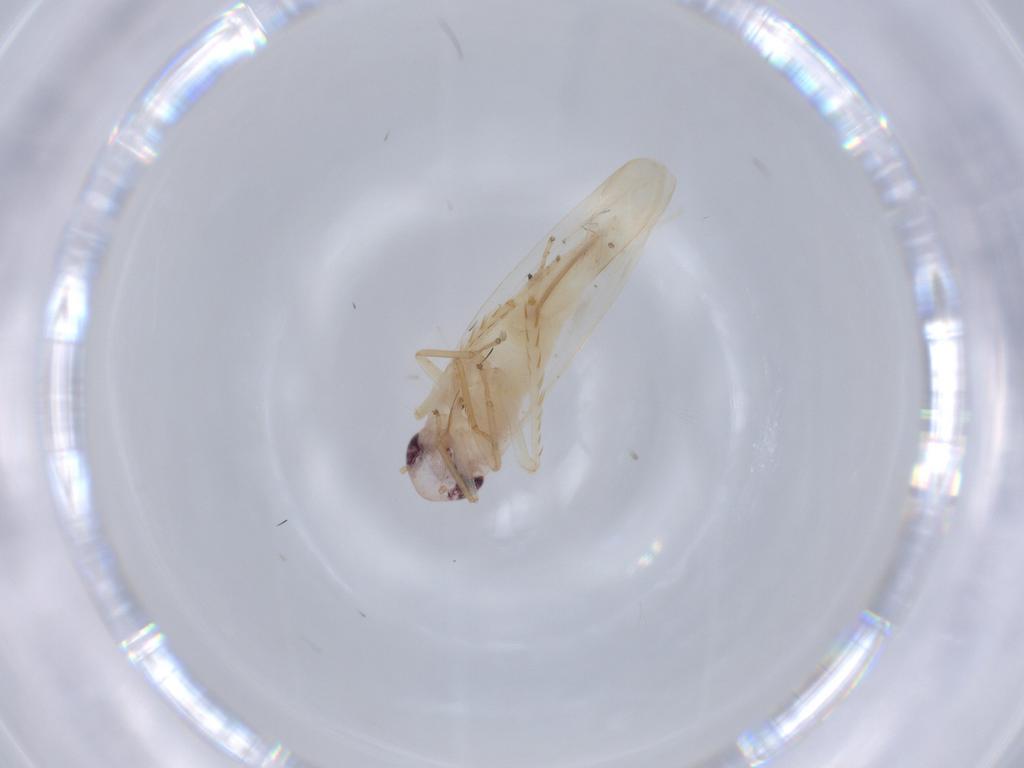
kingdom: Animalia
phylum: Arthropoda
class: Insecta
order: Hemiptera
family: Cicadellidae
